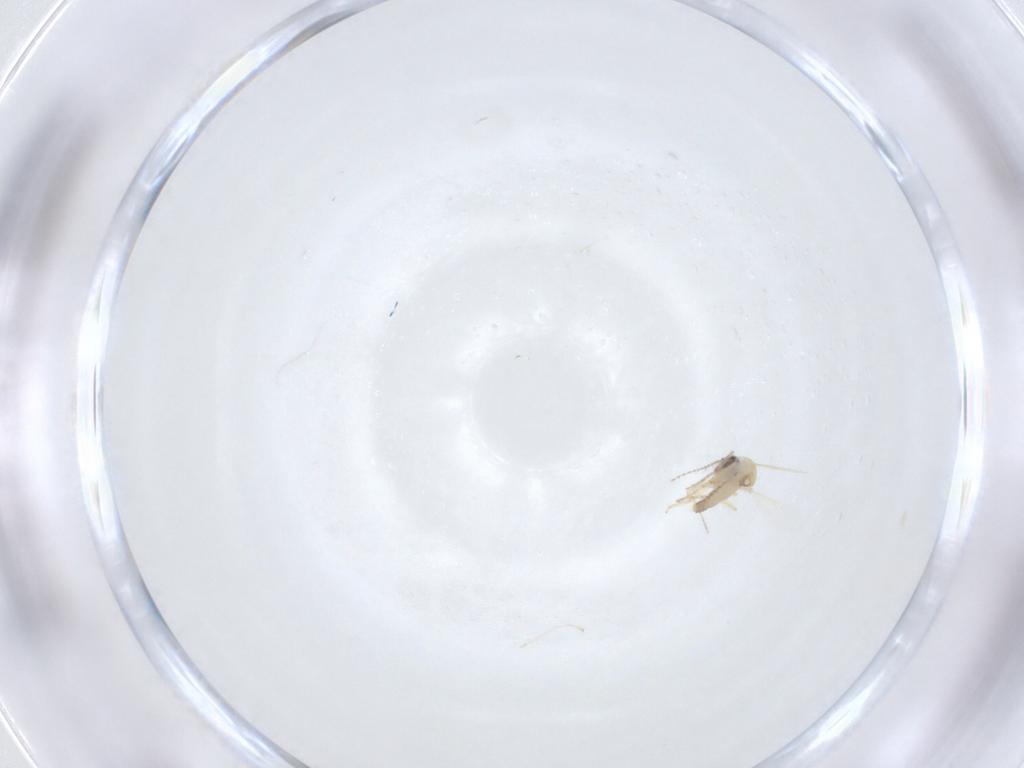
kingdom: Animalia
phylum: Arthropoda
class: Insecta
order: Diptera
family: Ceratopogonidae
